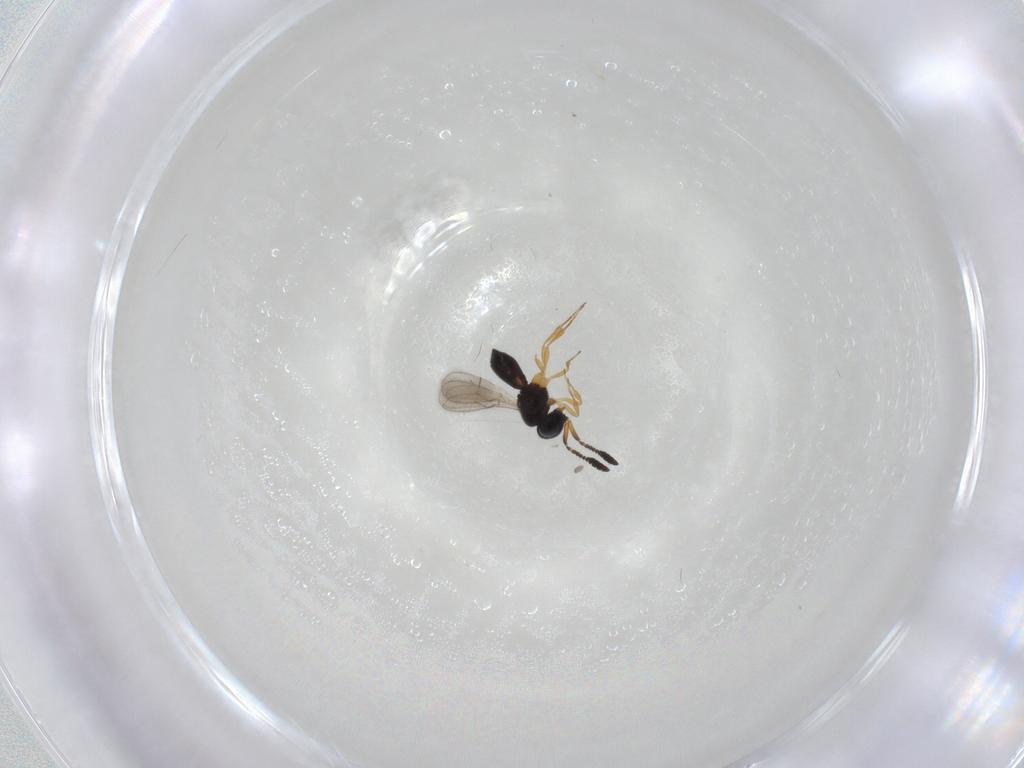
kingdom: Animalia
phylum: Arthropoda
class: Insecta
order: Hymenoptera
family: Scelionidae
